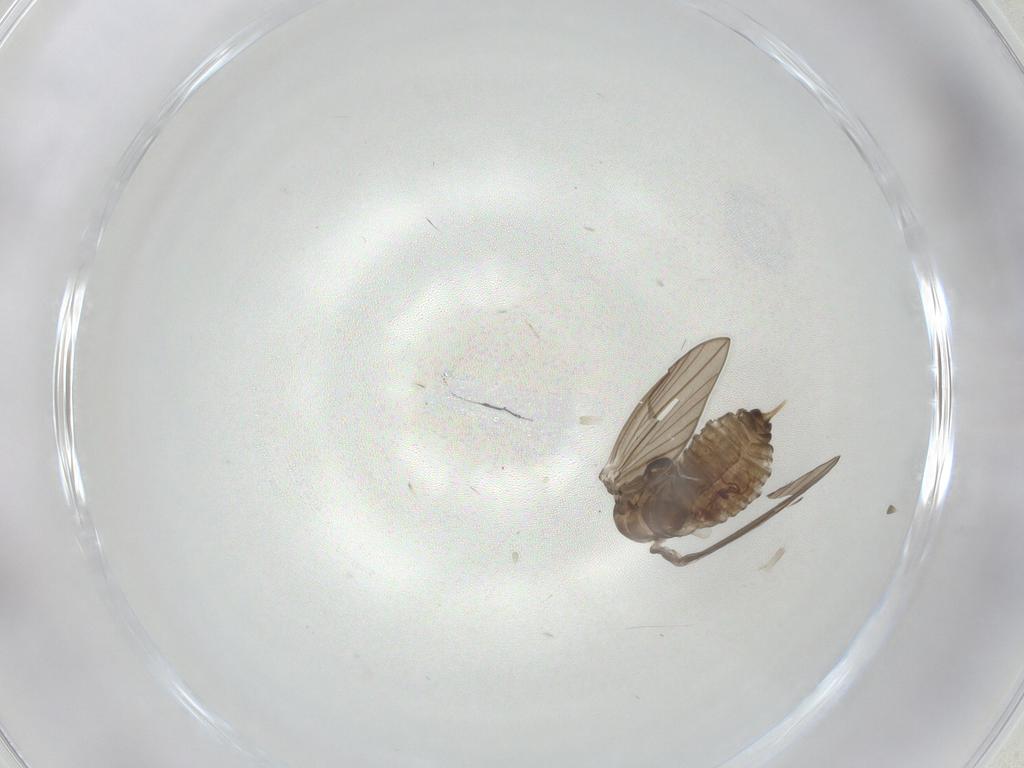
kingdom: Animalia
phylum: Arthropoda
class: Insecta
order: Diptera
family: Psychodidae
